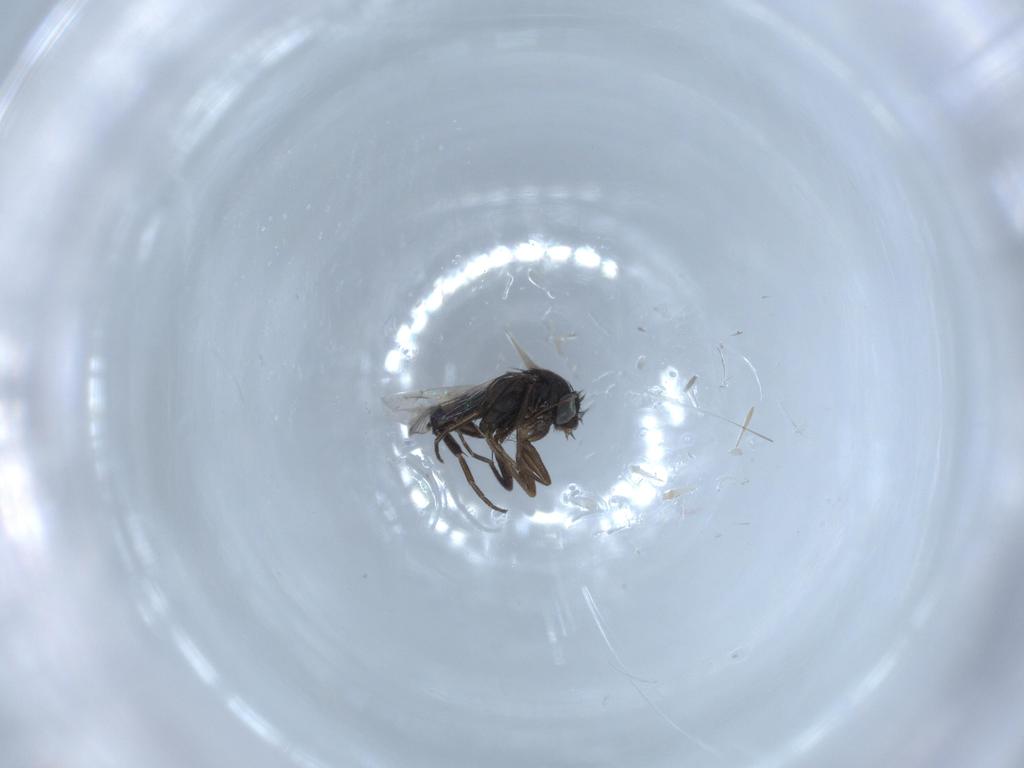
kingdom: Animalia
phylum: Arthropoda
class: Insecta
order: Diptera
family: Phoridae
